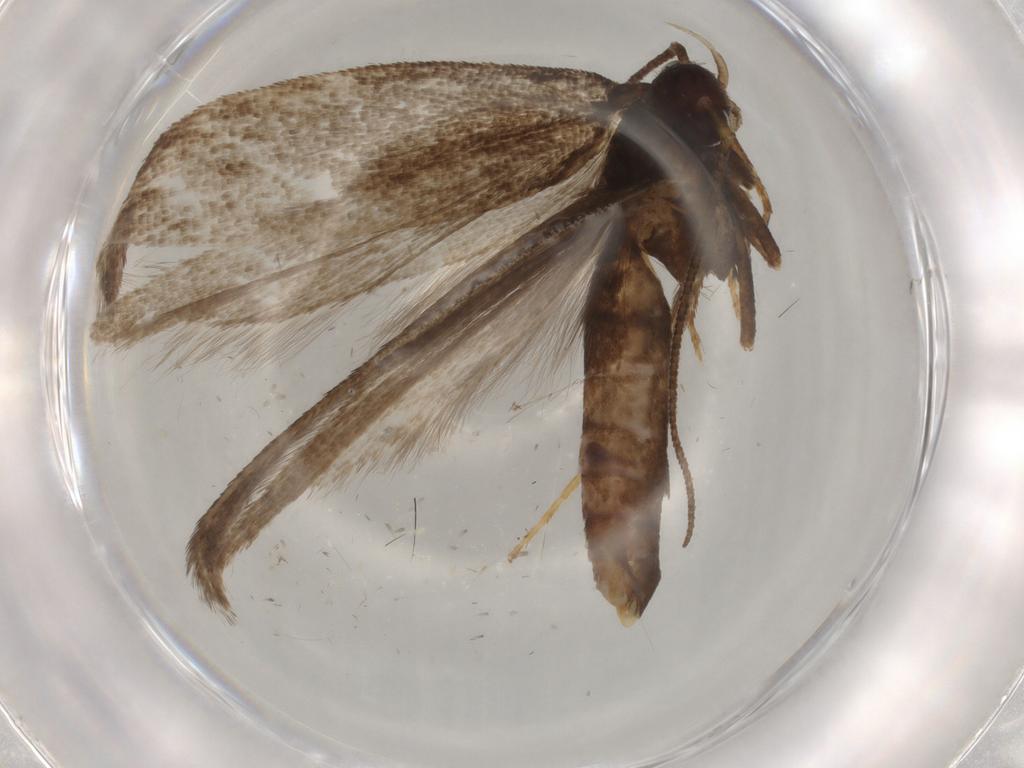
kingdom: Animalia
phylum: Arthropoda
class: Insecta
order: Lepidoptera
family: Gelechiidae
